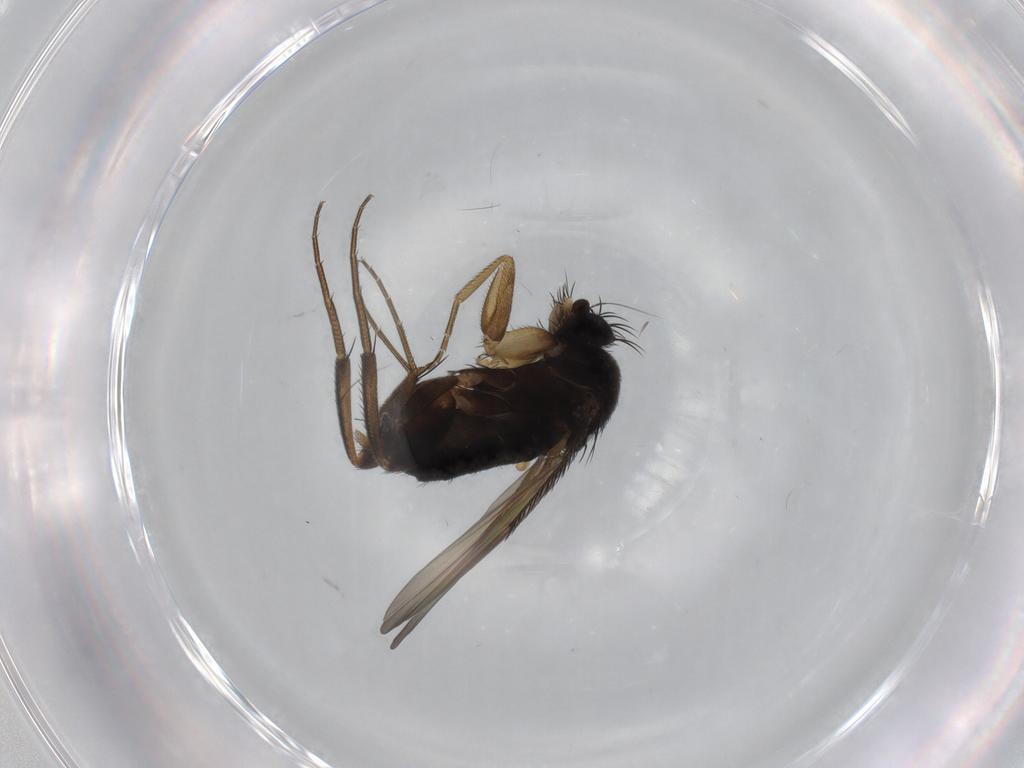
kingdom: Animalia
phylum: Arthropoda
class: Insecta
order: Diptera
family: Phoridae
